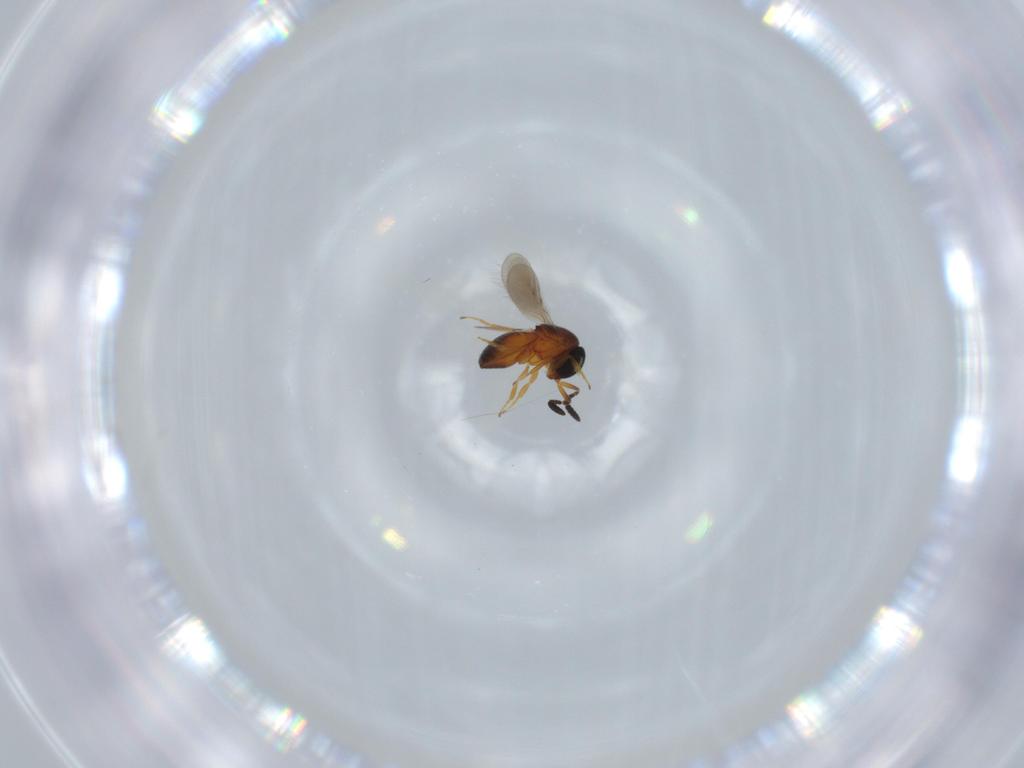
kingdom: Animalia
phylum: Arthropoda
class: Insecta
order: Hymenoptera
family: Scelionidae
